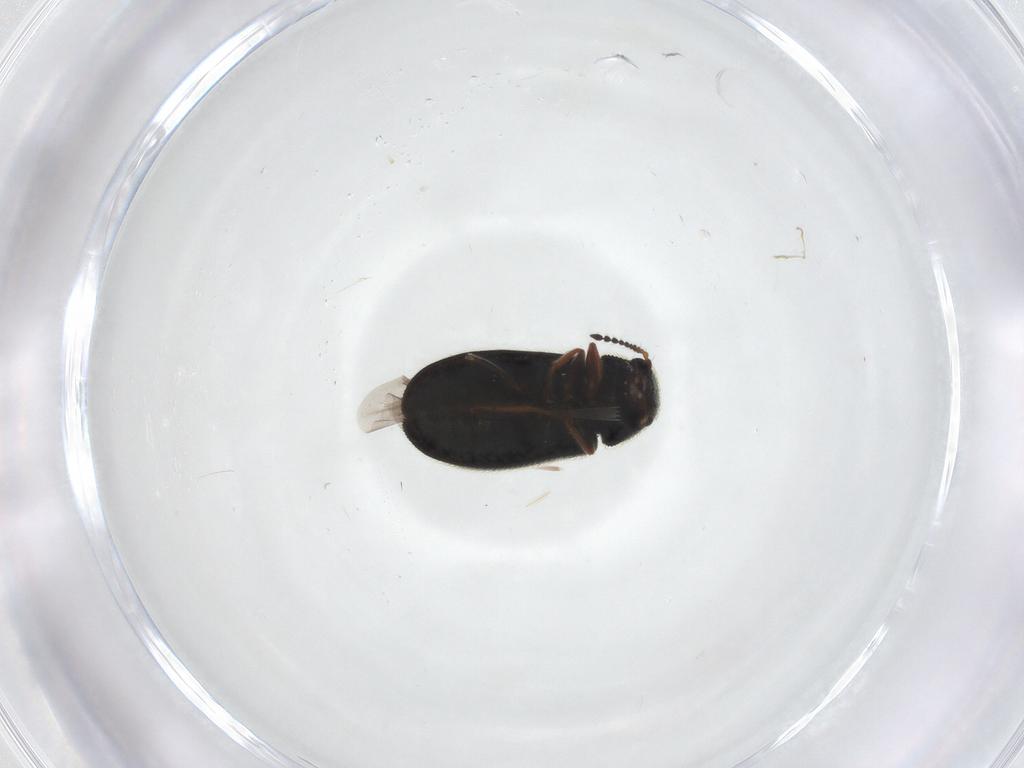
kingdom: Animalia
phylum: Arthropoda
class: Insecta
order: Coleoptera
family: Melyridae
